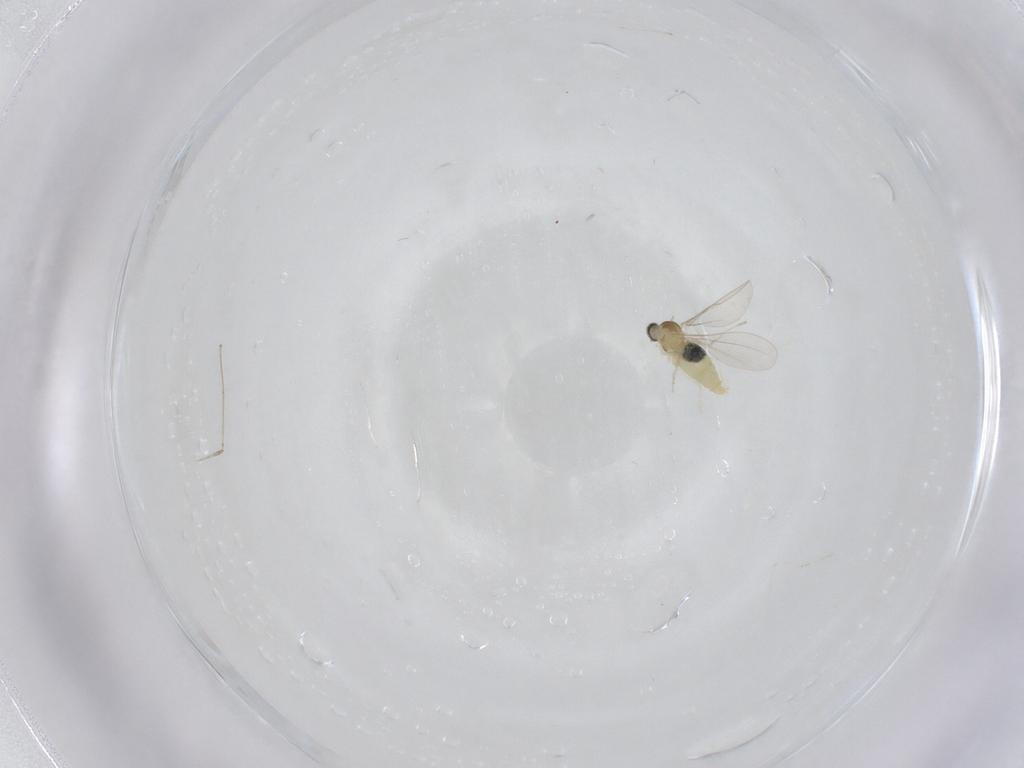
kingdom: Animalia
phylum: Arthropoda
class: Insecta
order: Diptera
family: Cecidomyiidae
